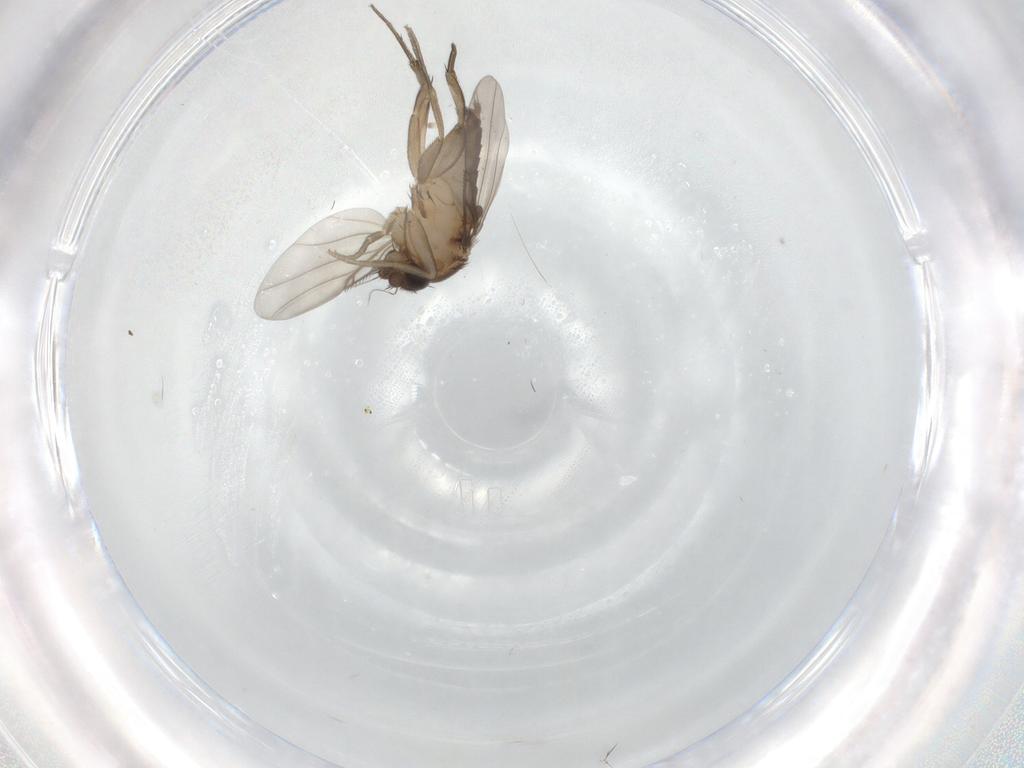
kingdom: Animalia
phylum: Arthropoda
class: Insecta
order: Diptera
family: Phoridae
